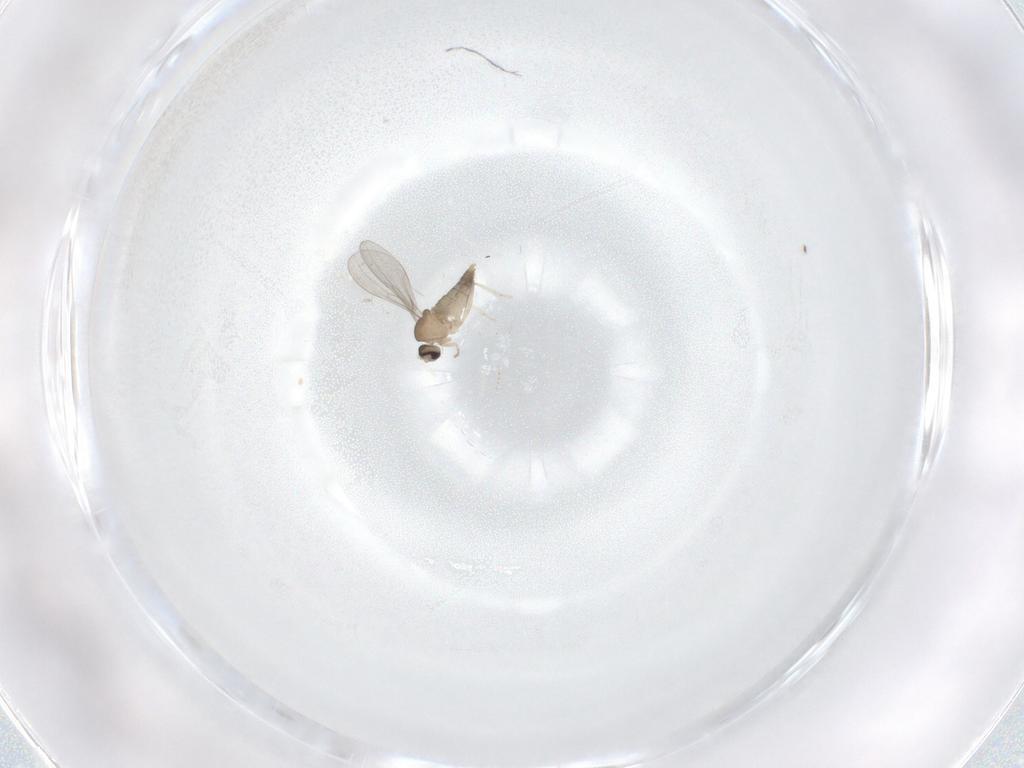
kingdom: Animalia
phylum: Arthropoda
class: Insecta
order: Diptera
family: Cecidomyiidae
